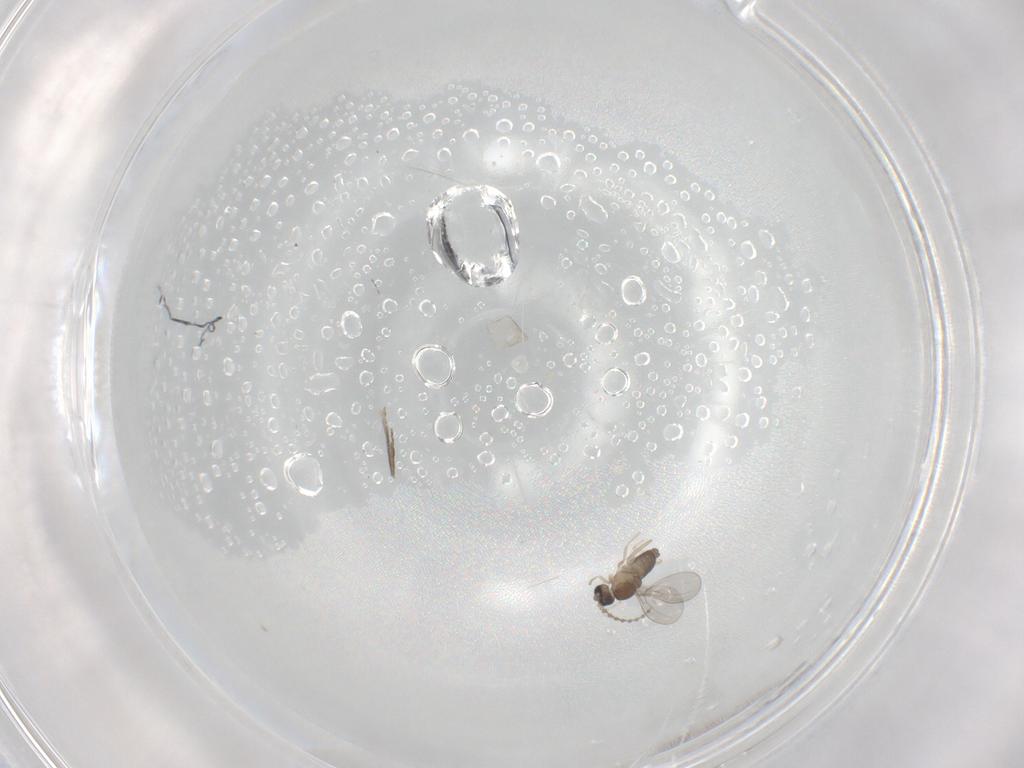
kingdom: Animalia
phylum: Arthropoda
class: Insecta
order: Diptera
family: Cecidomyiidae
